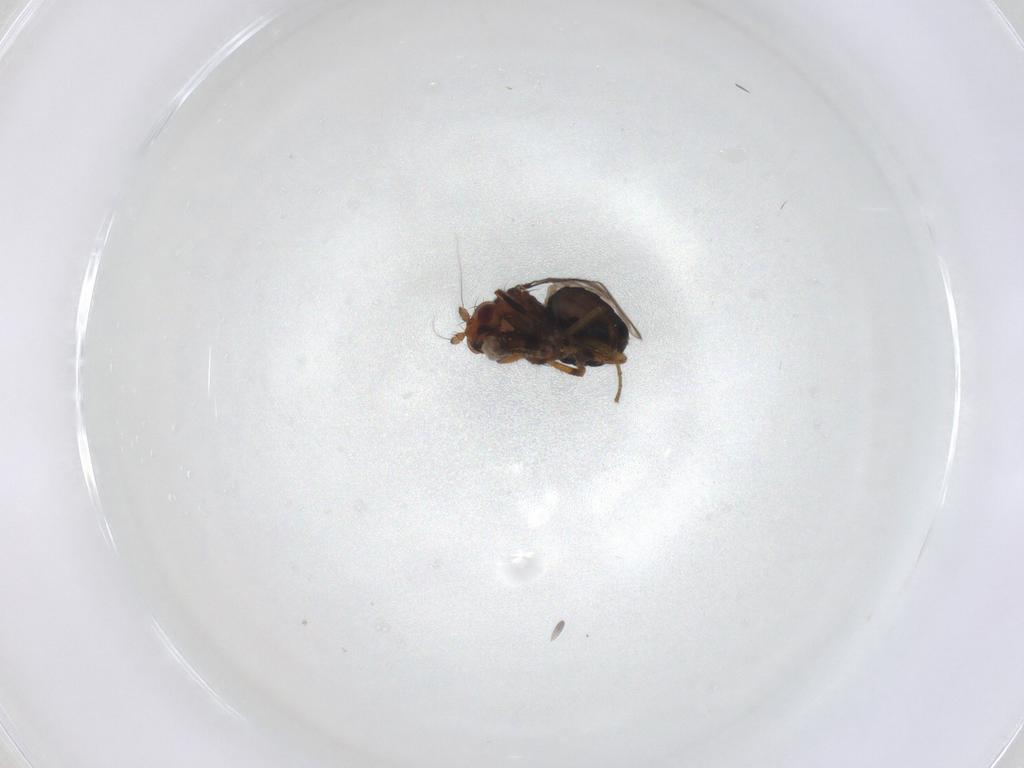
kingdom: Animalia
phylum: Arthropoda
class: Insecta
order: Diptera
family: Sphaeroceridae
